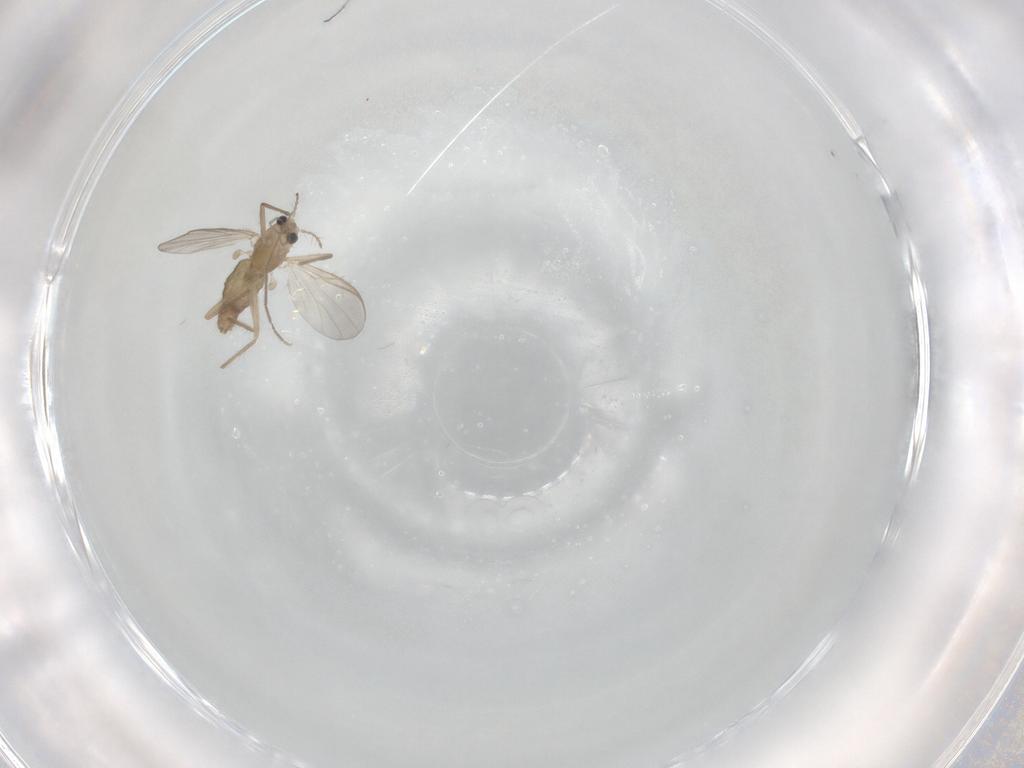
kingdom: Animalia
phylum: Arthropoda
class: Insecta
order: Diptera
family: Chironomidae
